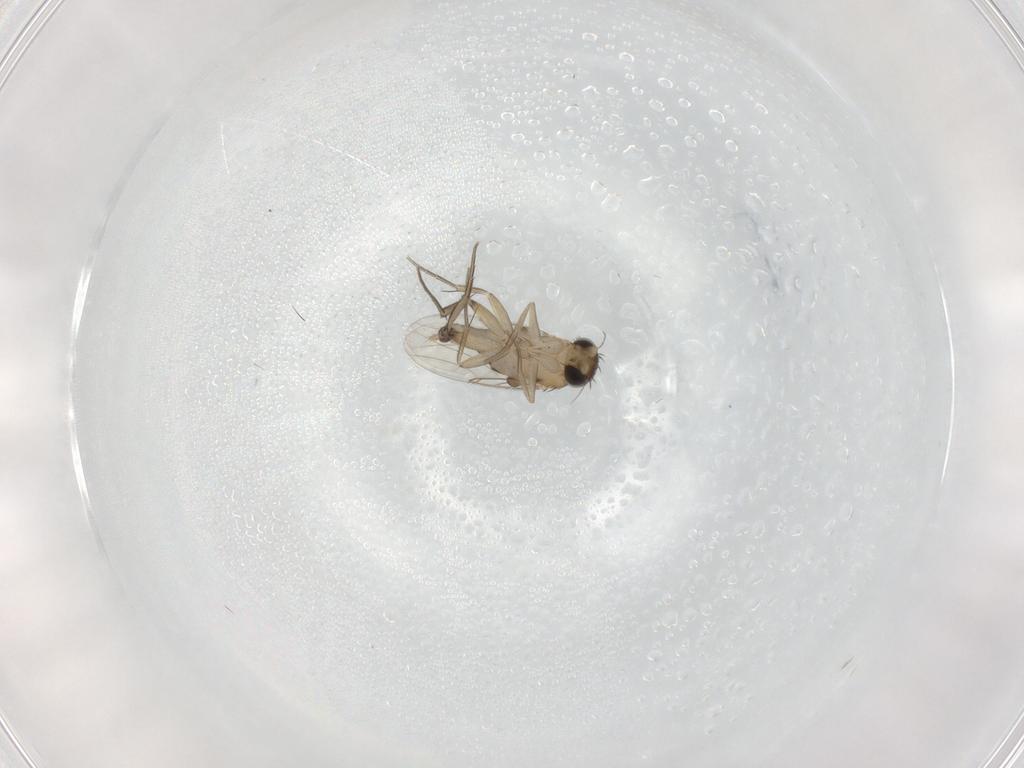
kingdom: Animalia
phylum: Arthropoda
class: Insecta
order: Diptera
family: Phoridae
